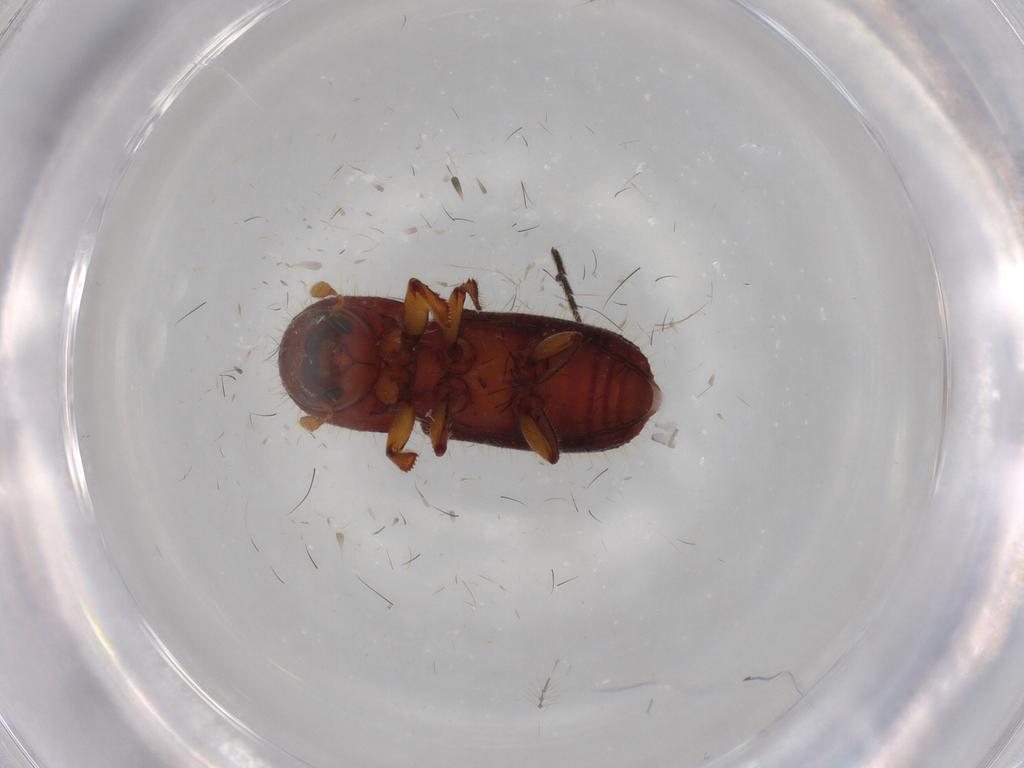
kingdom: Animalia
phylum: Arthropoda
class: Insecta
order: Coleoptera
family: Curculionidae
